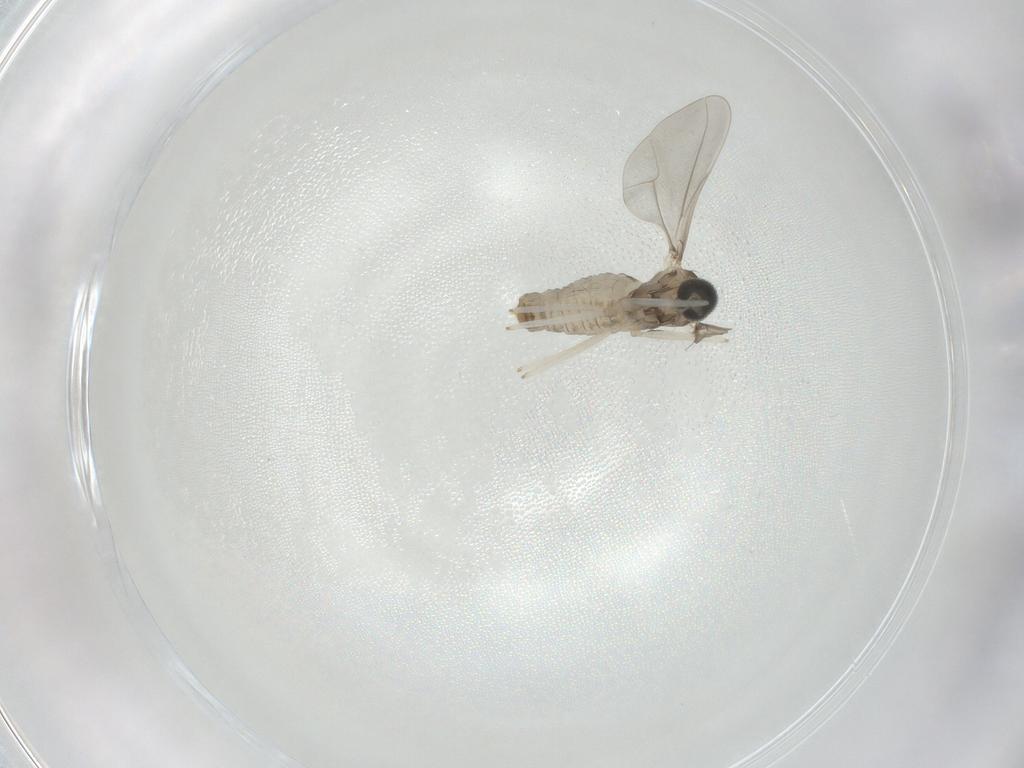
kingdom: Animalia
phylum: Arthropoda
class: Insecta
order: Diptera
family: Cecidomyiidae
